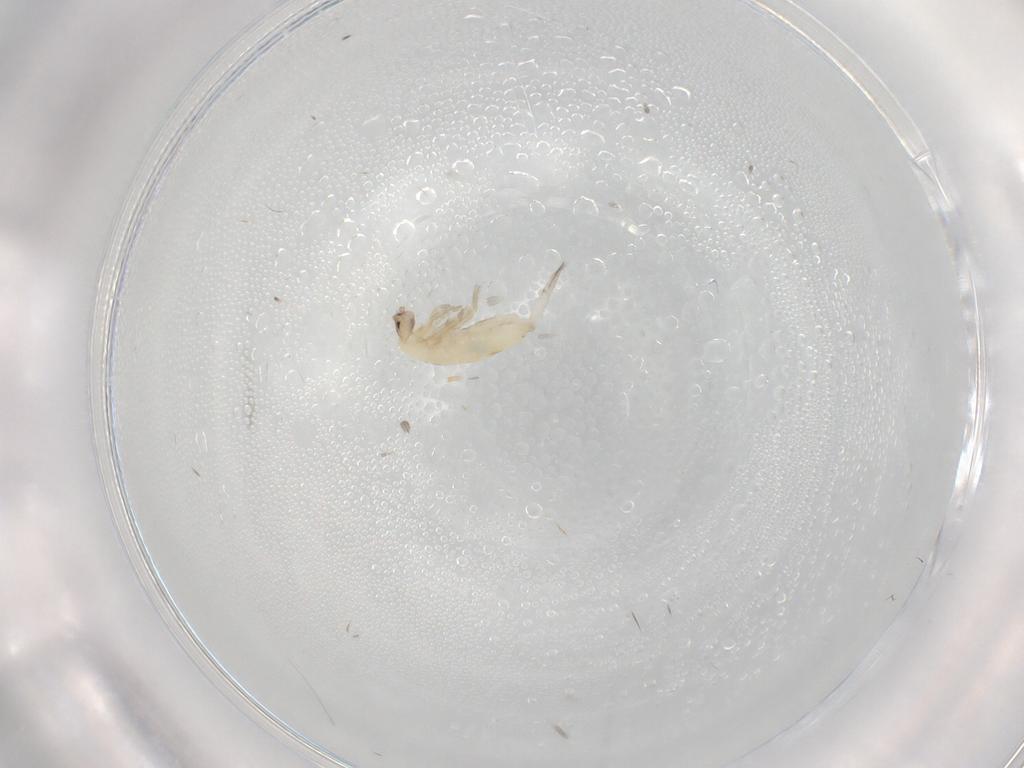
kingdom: Animalia
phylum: Arthropoda
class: Collembola
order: Entomobryomorpha
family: Entomobryidae
